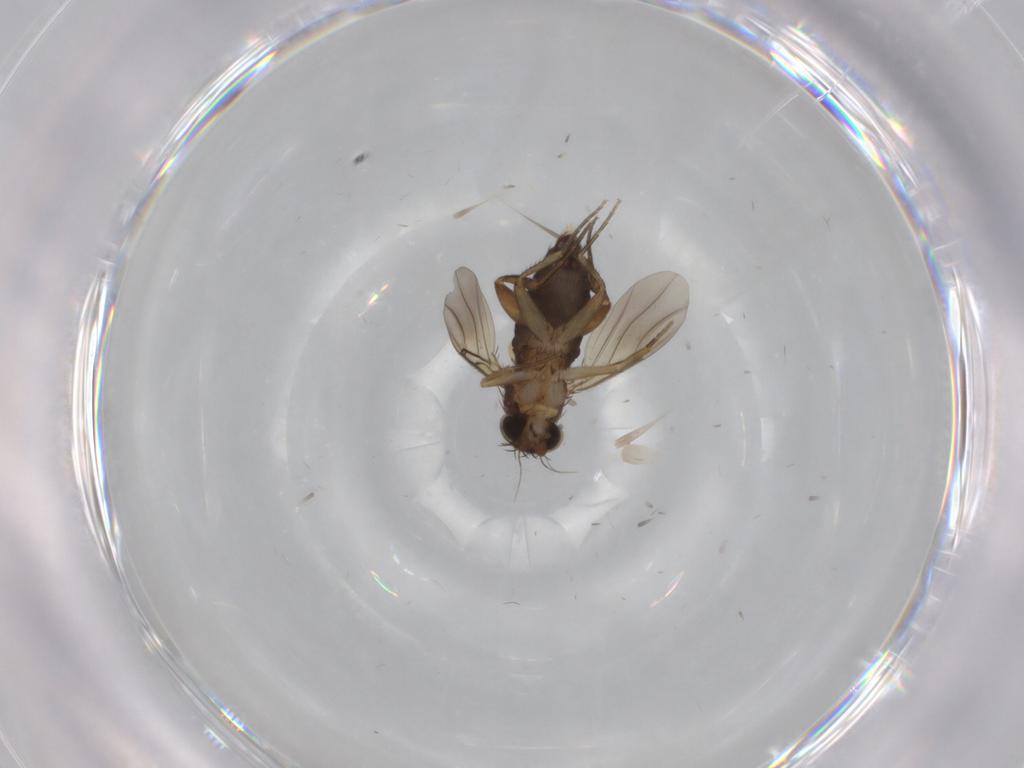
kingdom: Animalia
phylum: Arthropoda
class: Insecta
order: Diptera
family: Phoridae
